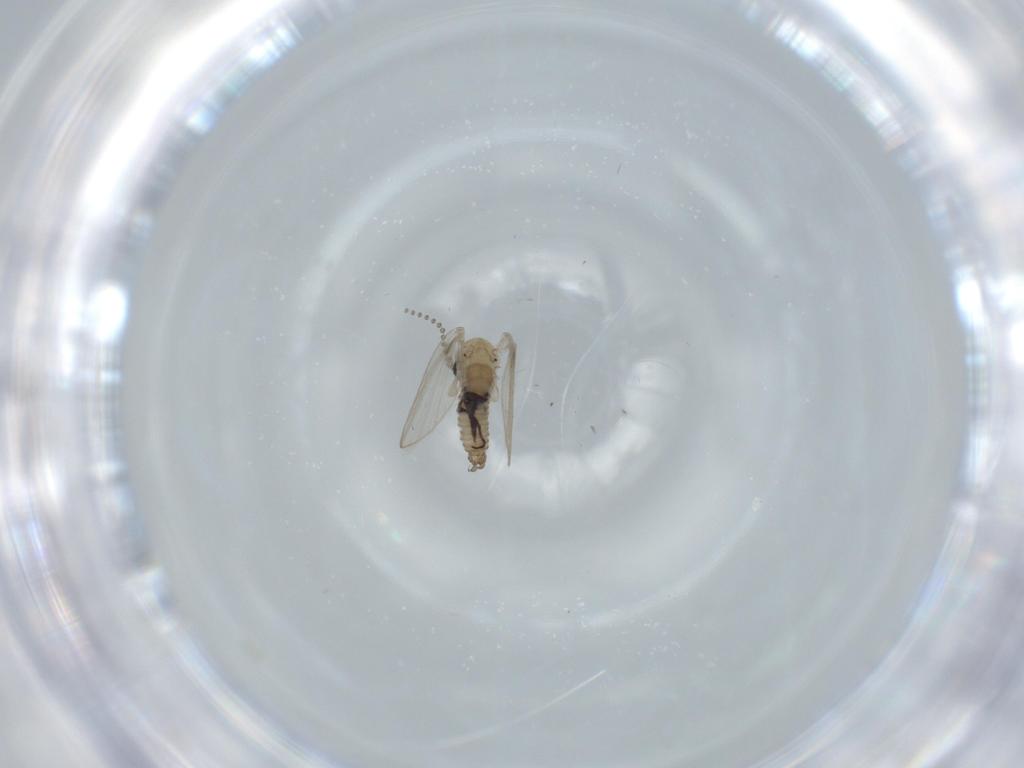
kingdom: Animalia
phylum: Arthropoda
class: Insecta
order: Diptera
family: Psychodidae
